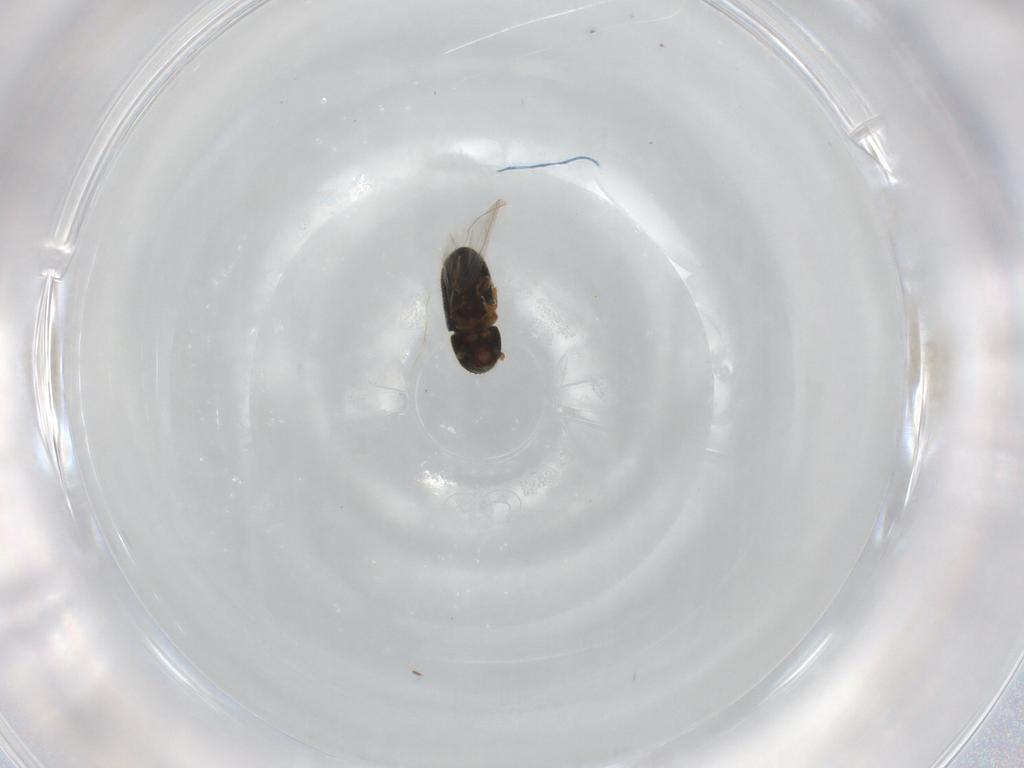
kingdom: Animalia
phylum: Arthropoda
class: Insecta
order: Coleoptera
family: Curculionidae
